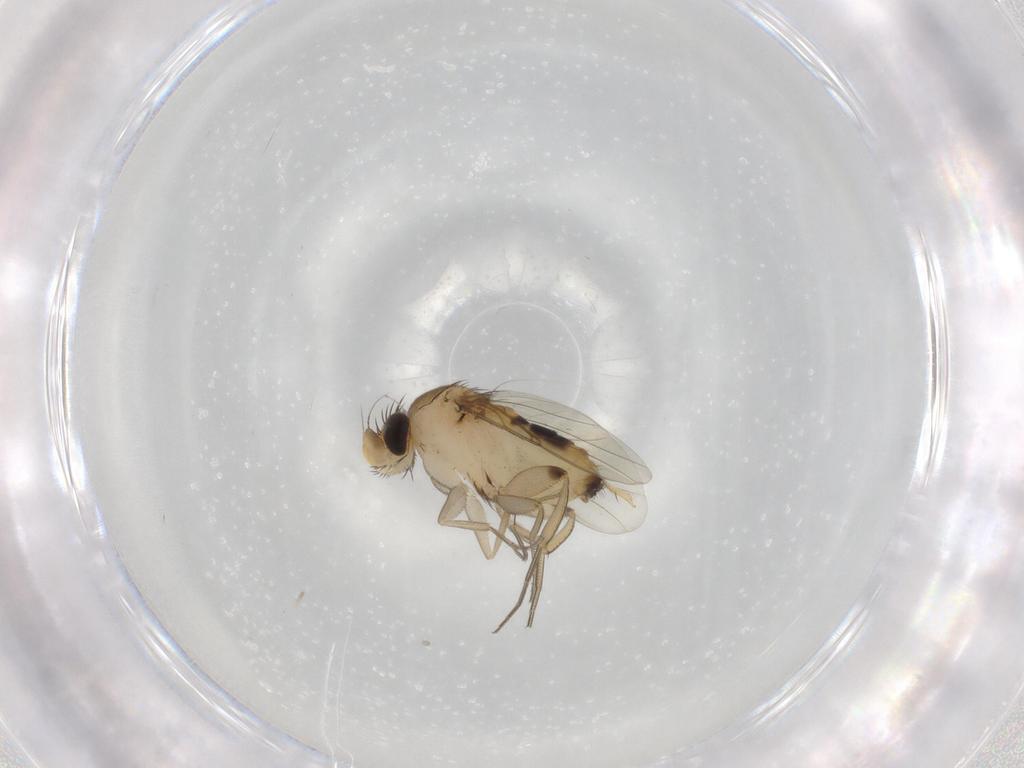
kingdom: Animalia
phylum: Arthropoda
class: Insecta
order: Diptera
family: Phoridae
